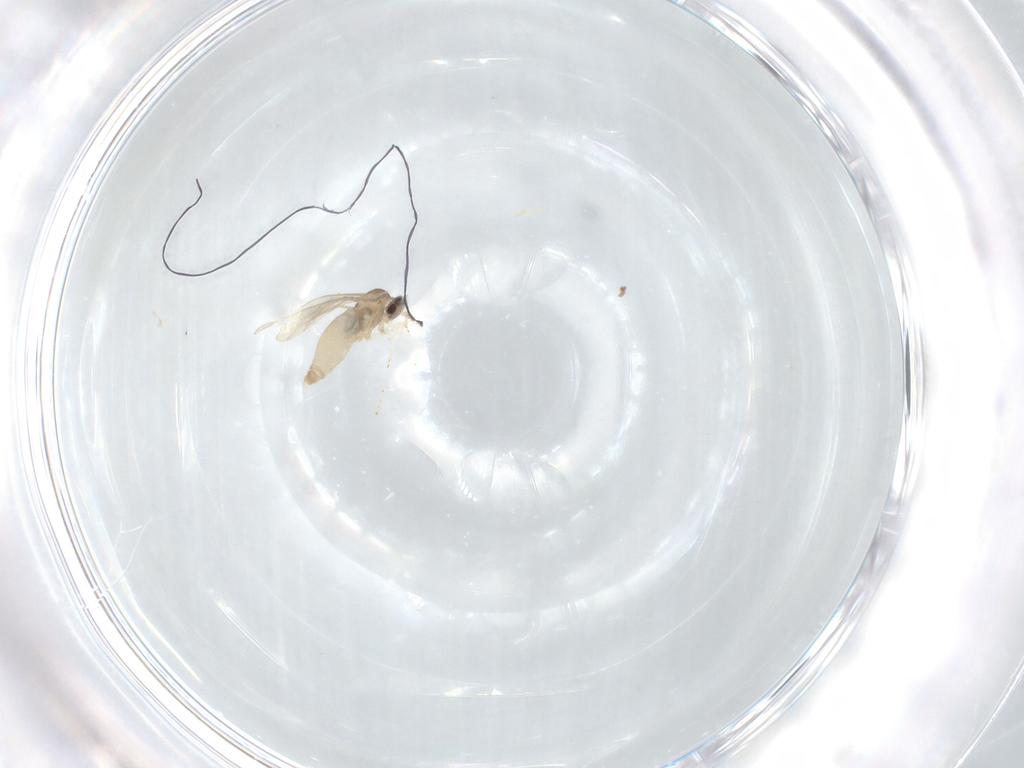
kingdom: Animalia
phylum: Arthropoda
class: Insecta
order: Diptera
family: Cecidomyiidae
